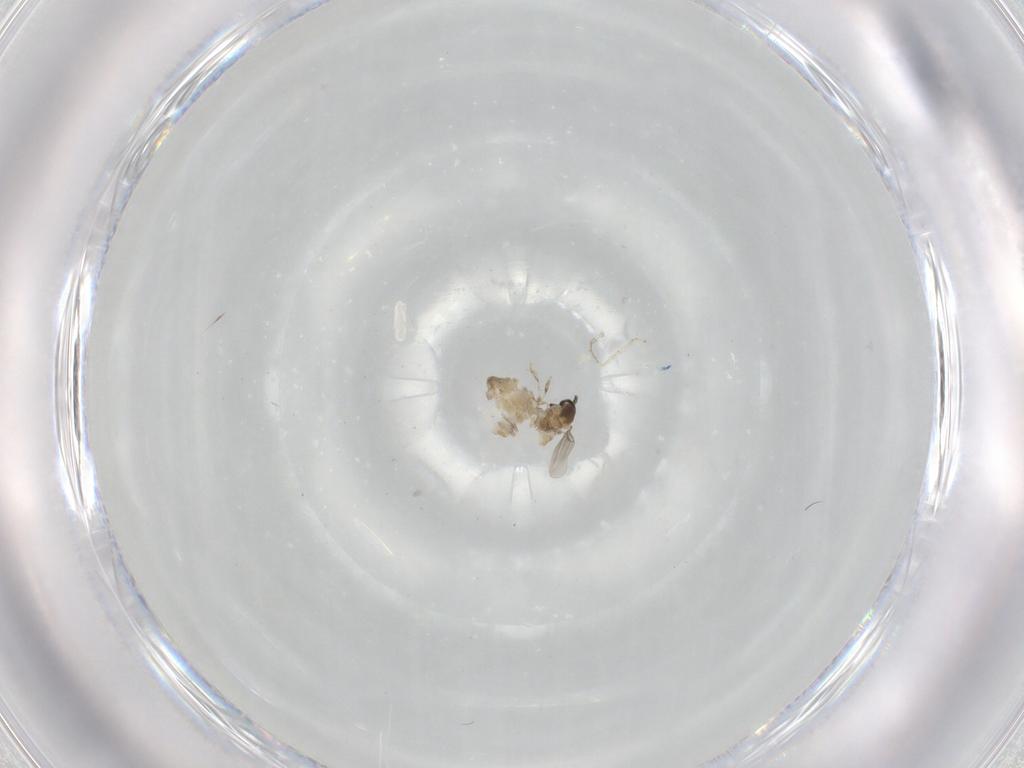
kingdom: Animalia
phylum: Arthropoda
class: Insecta
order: Diptera
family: Cecidomyiidae
